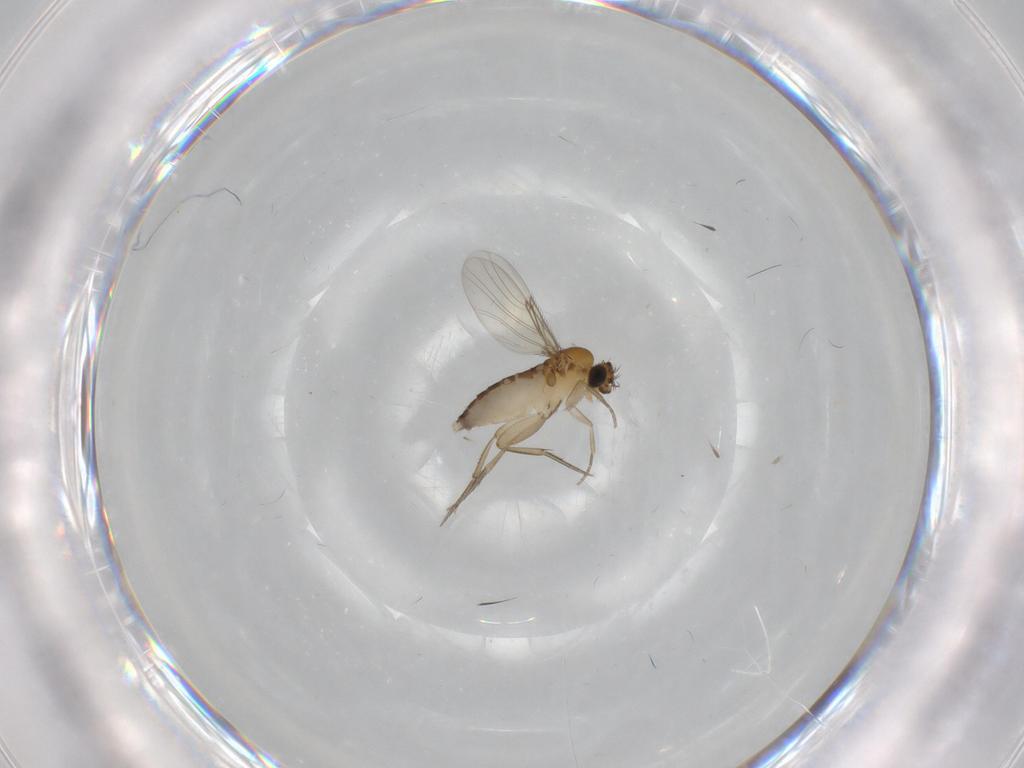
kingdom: Animalia
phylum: Arthropoda
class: Insecta
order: Diptera
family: Phoridae
